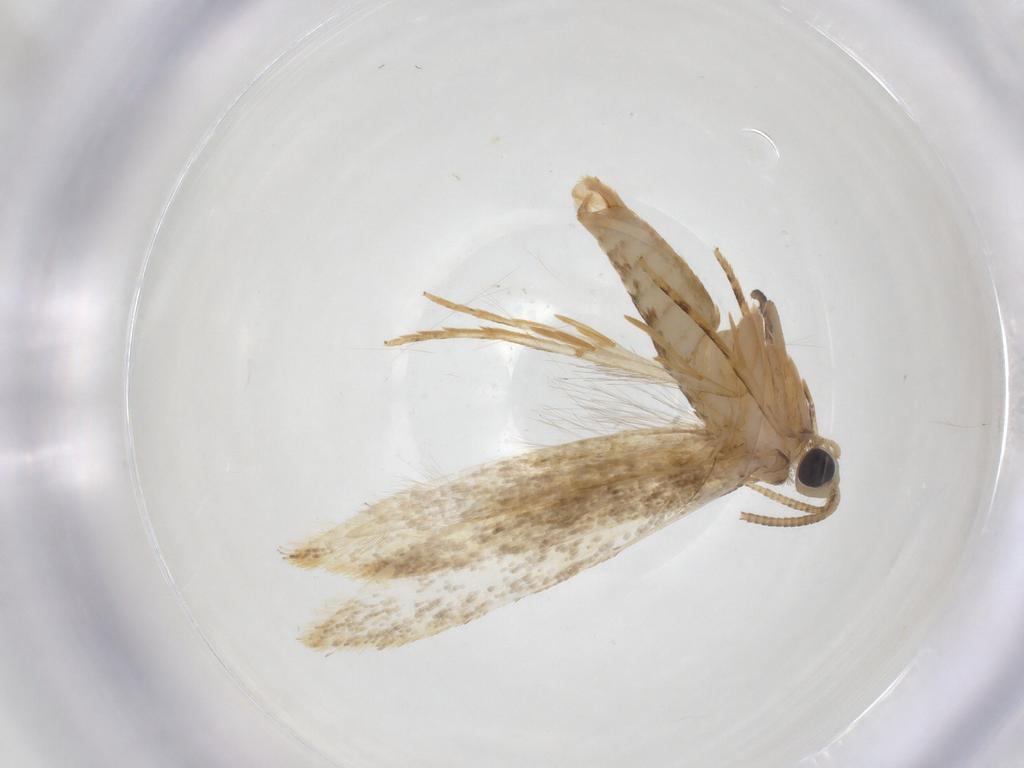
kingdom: Animalia
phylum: Arthropoda
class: Insecta
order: Lepidoptera
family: Tineidae
